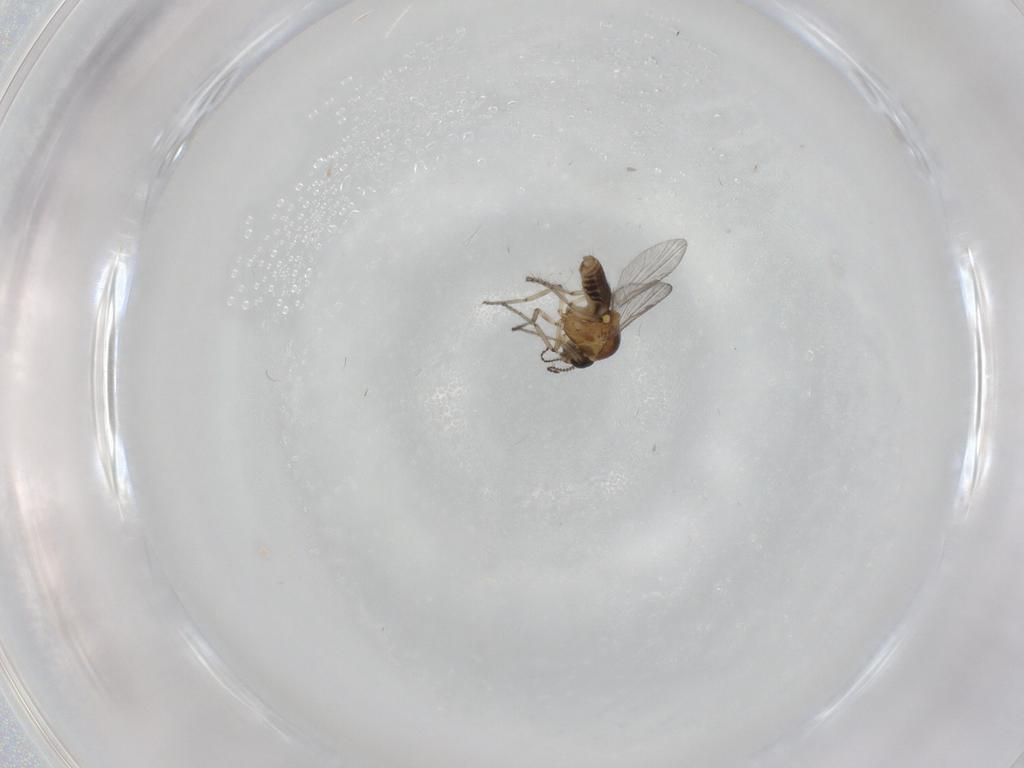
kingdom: Animalia
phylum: Arthropoda
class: Insecta
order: Diptera
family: Ceratopogonidae
